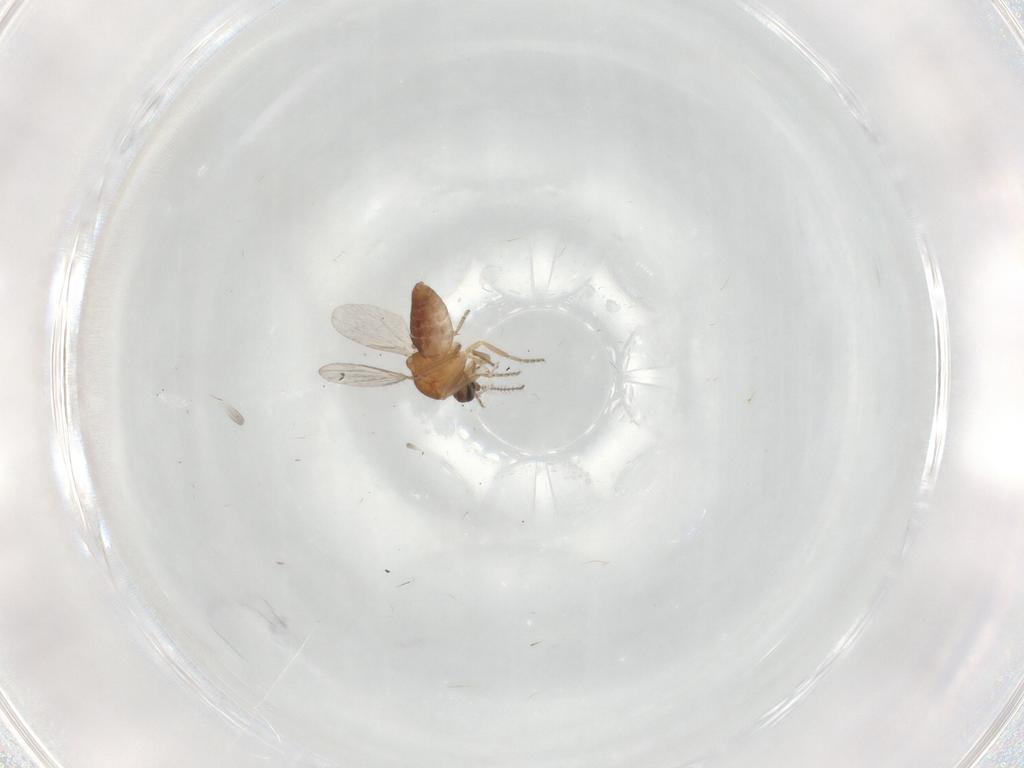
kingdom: Animalia
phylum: Arthropoda
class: Insecta
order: Diptera
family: Ceratopogonidae
